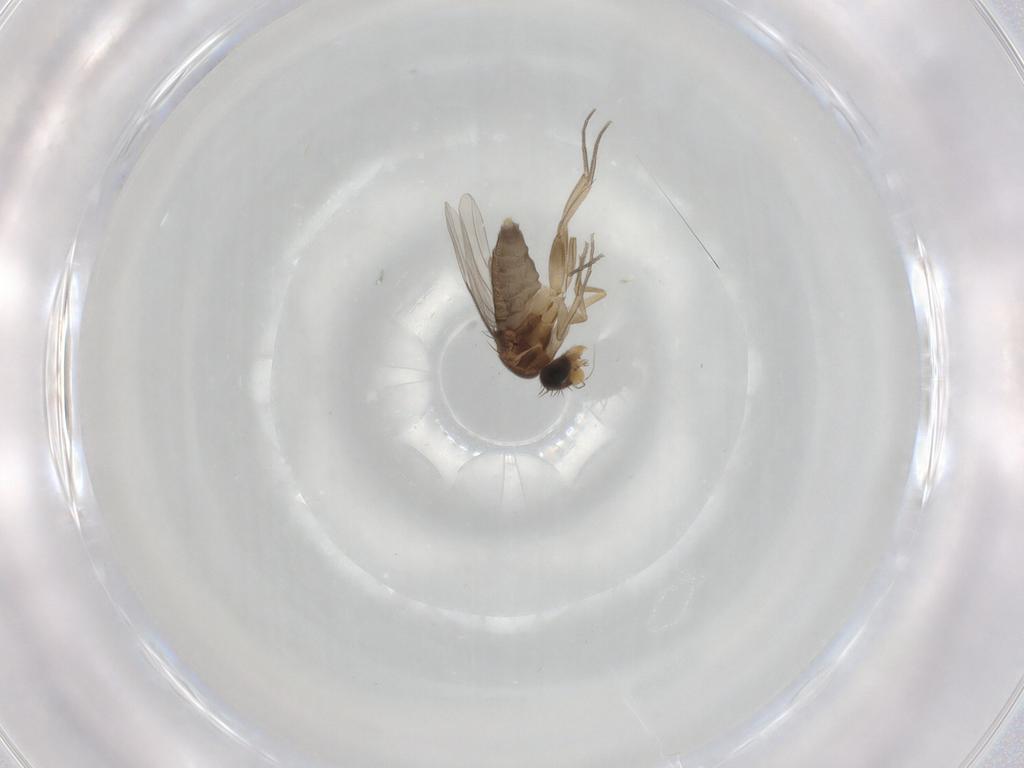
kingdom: Animalia
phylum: Arthropoda
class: Insecta
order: Diptera
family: Phoridae
